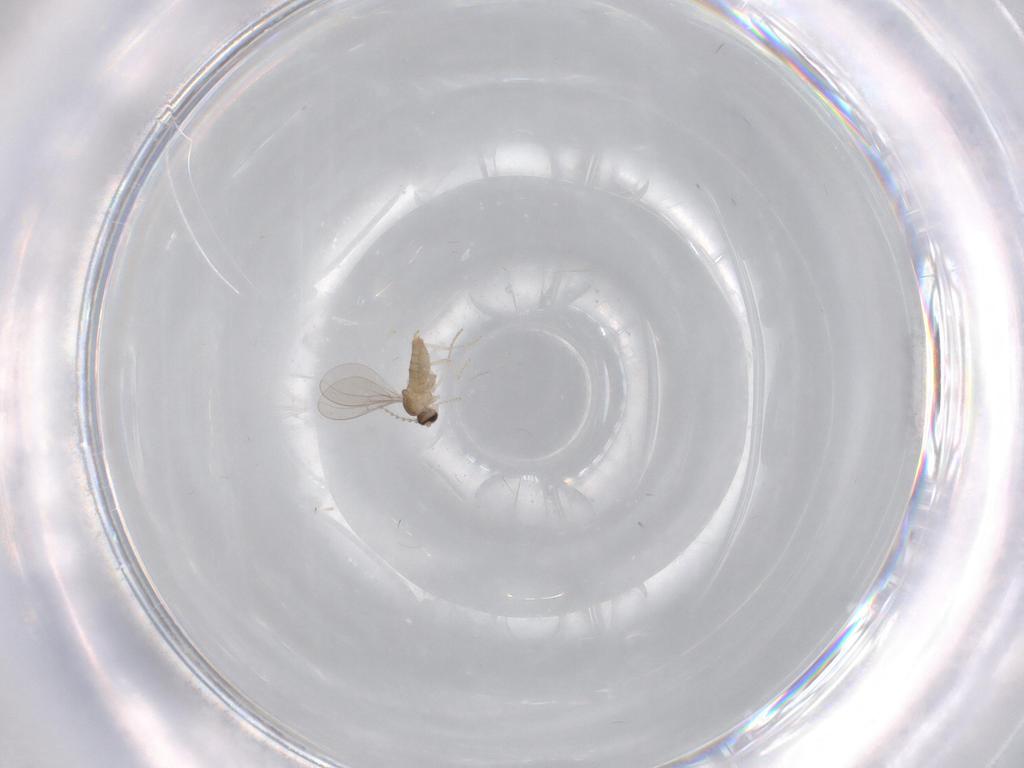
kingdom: Animalia
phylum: Arthropoda
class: Insecta
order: Diptera
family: Cecidomyiidae
